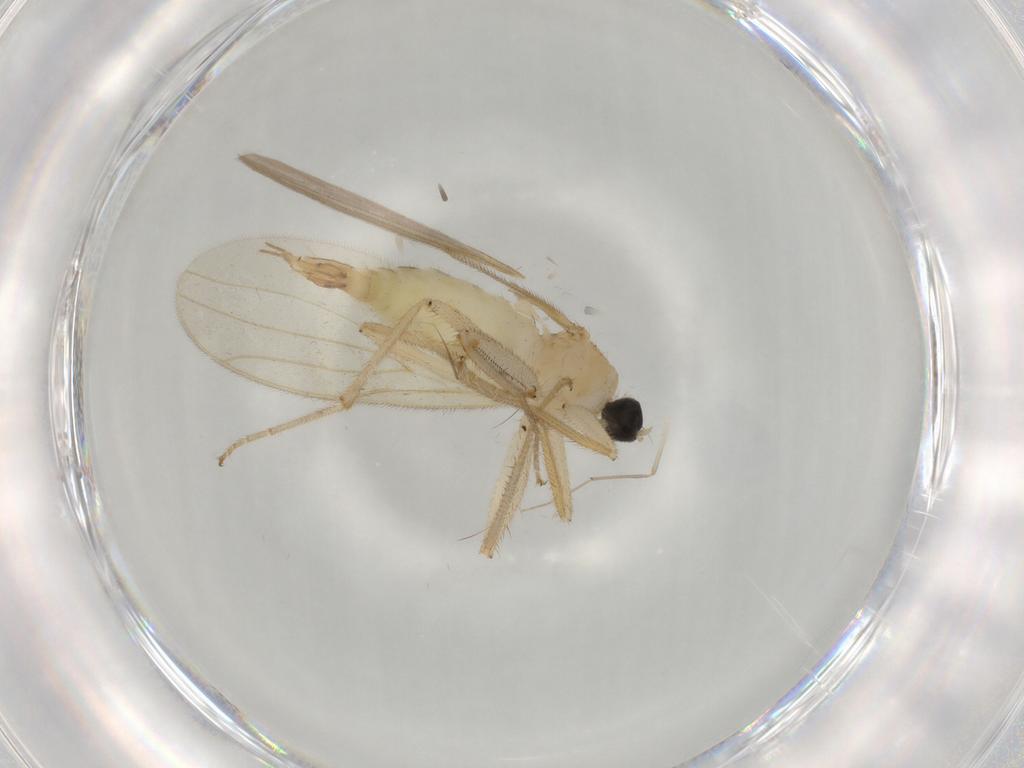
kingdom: Animalia
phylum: Arthropoda
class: Insecta
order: Diptera
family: Hybotidae
